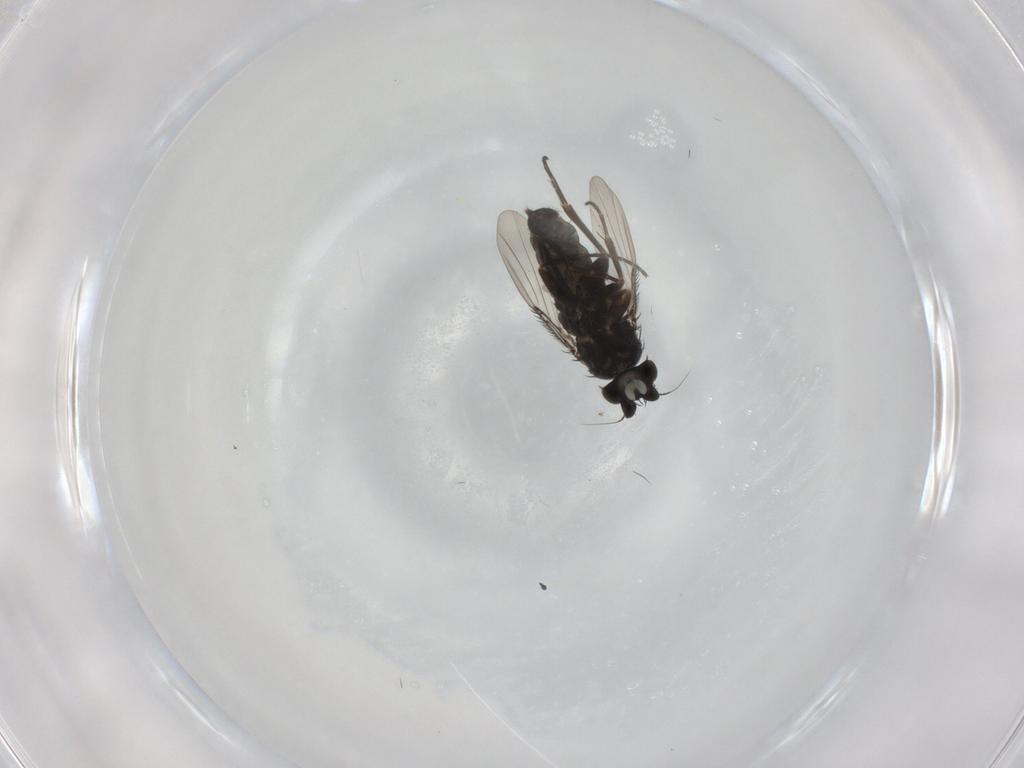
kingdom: Animalia
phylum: Arthropoda
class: Insecta
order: Diptera
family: Phoridae
